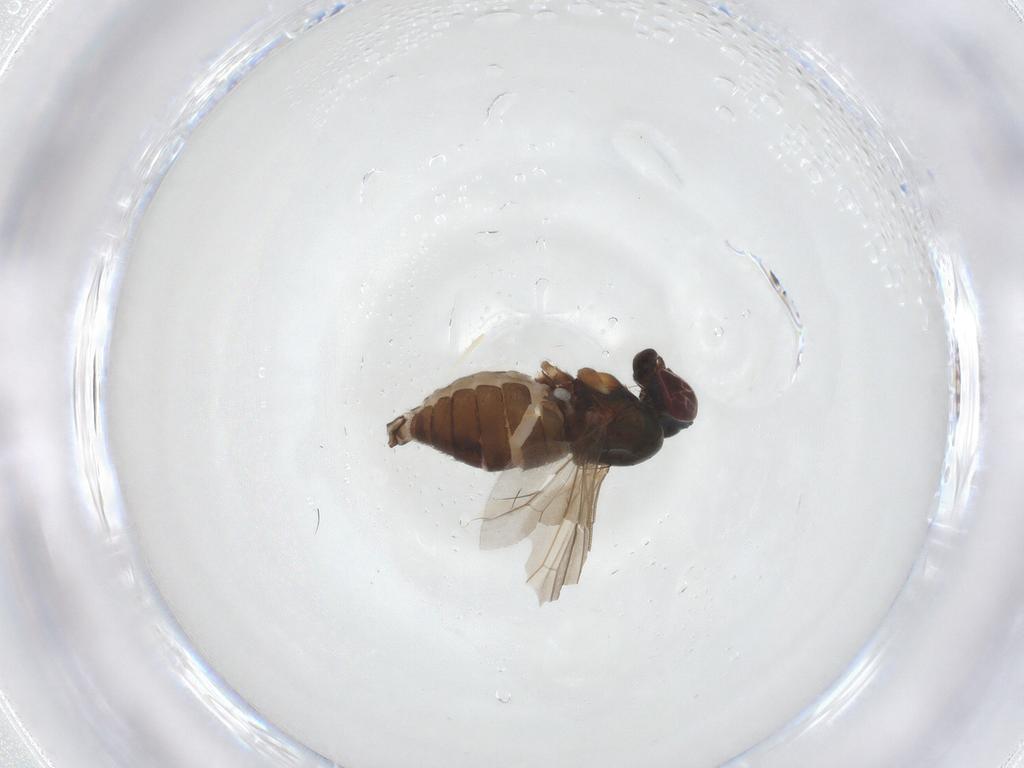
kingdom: Animalia
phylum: Arthropoda
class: Insecta
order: Diptera
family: Dolichopodidae
